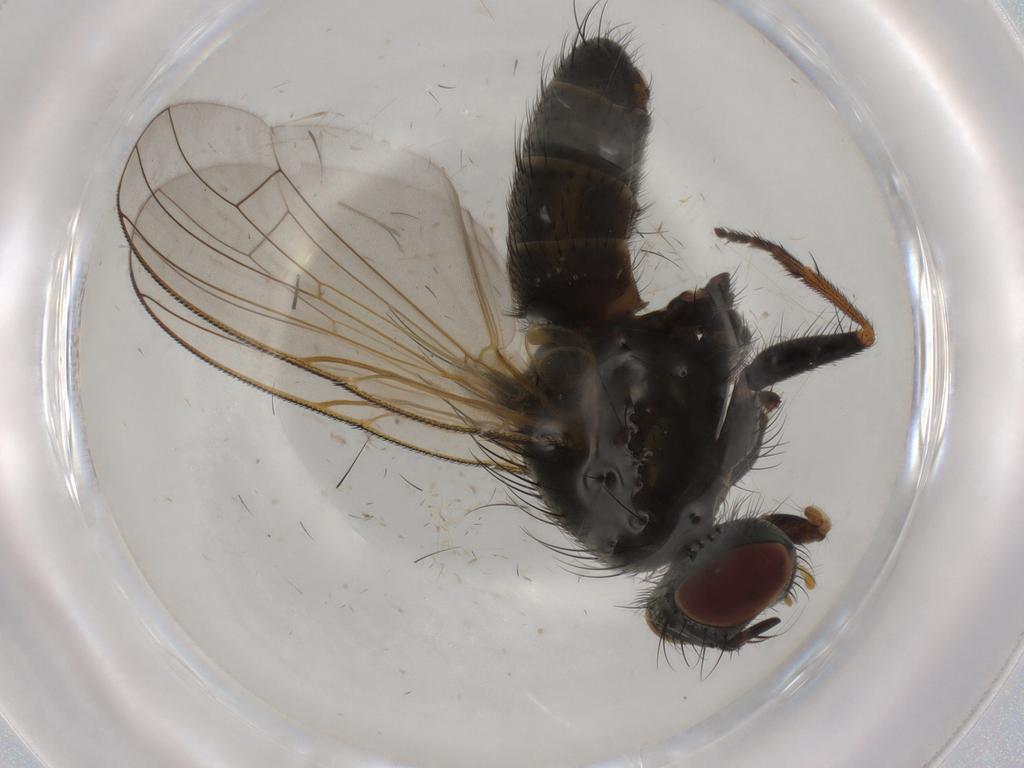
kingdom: Animalia
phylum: Arthropoda
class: Insecta
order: Diptera
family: Muscidae
